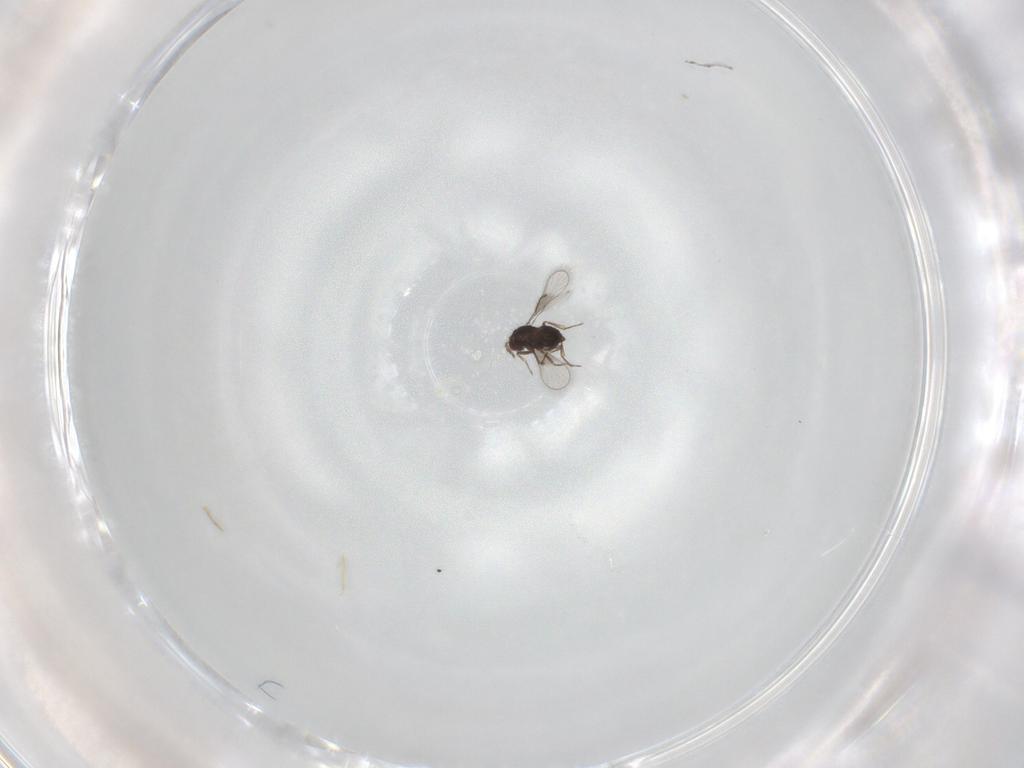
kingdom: Animalia
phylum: Arthropoda
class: Insecta
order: Hymenoptera
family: Trichogrammatidae
